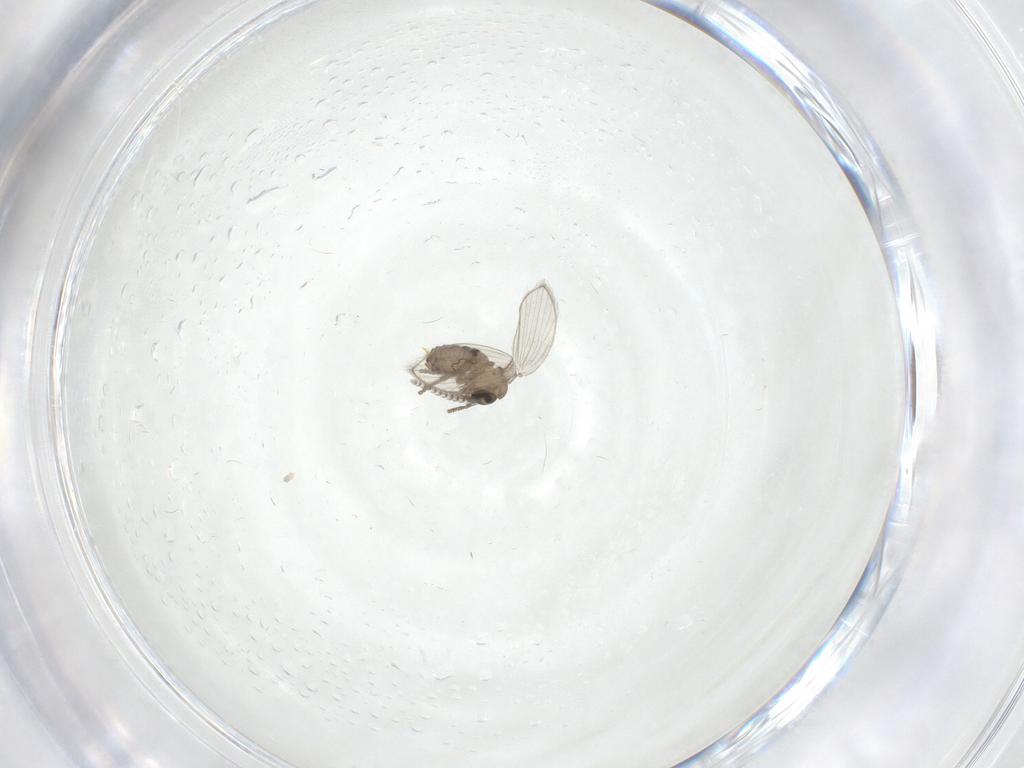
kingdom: Animalia
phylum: Arthropoda
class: Insecta
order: Diptera
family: Psychodidae
